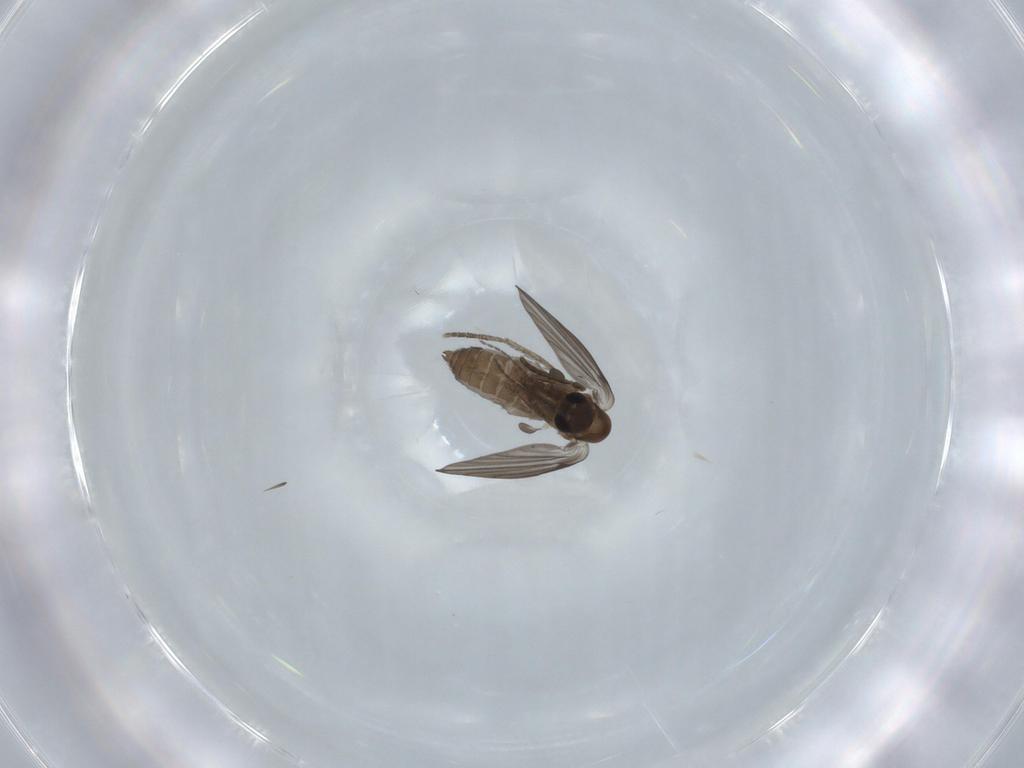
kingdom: Animalia
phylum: Arthropoda
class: Insecta
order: Diptera
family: Psychodidae
